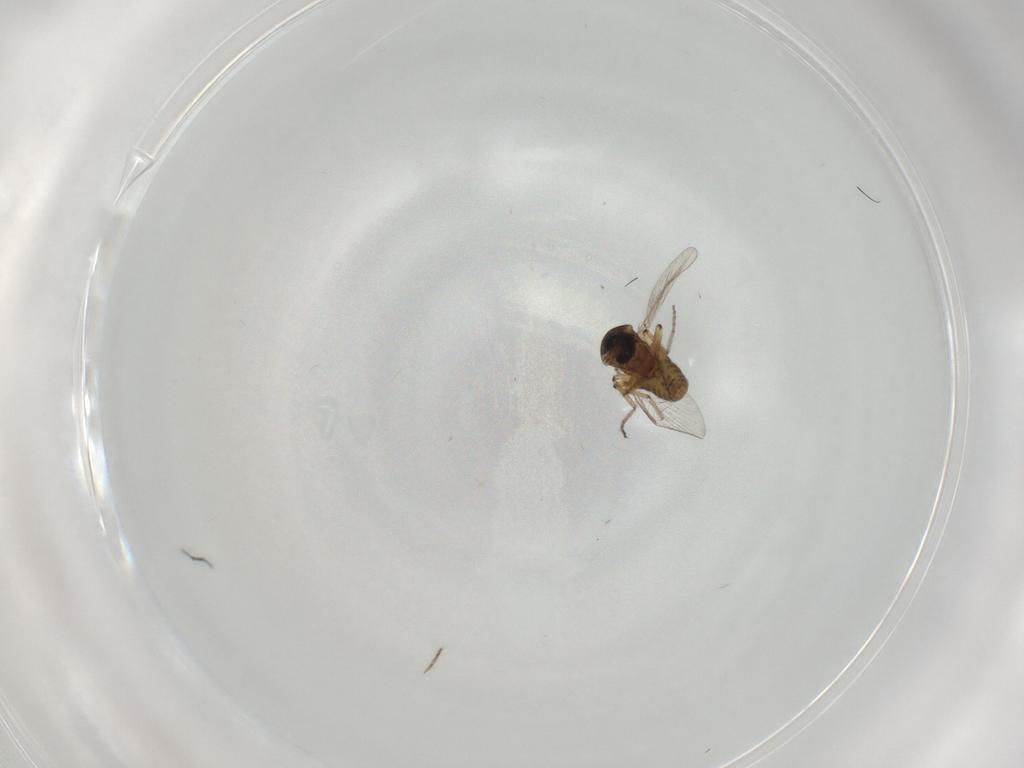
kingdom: Animalia
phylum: Arthropoda
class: Insecta
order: Diptera
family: Ceratopogonidae
